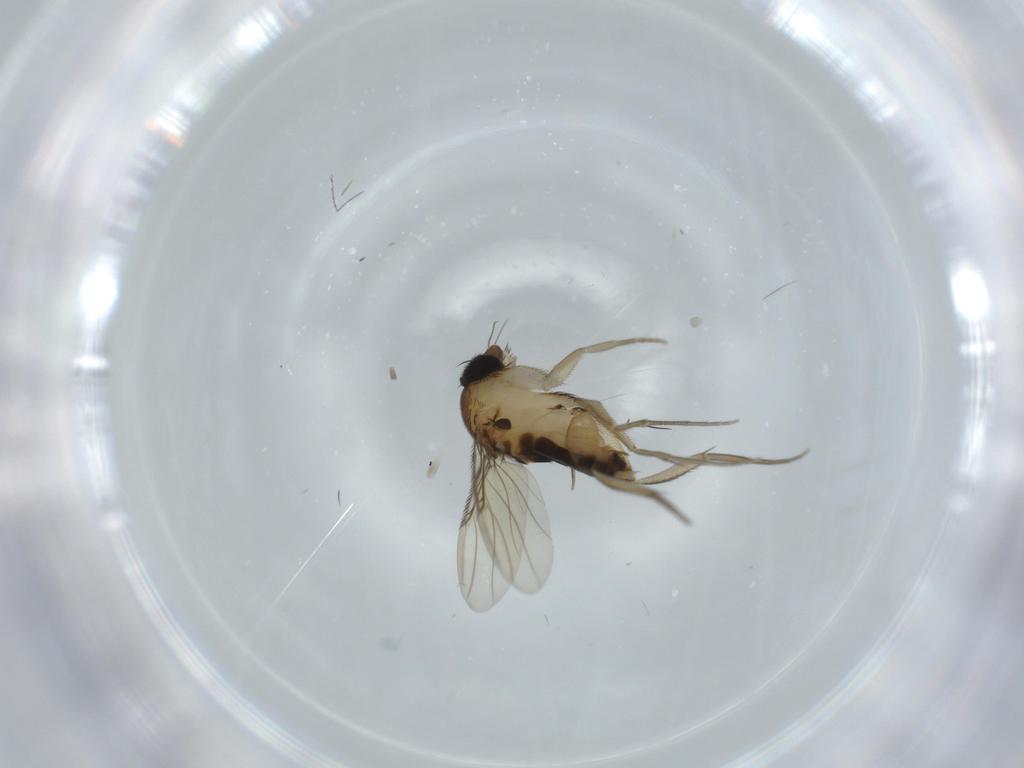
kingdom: Animalia
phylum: Arthropoda
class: Insecta
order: Diptera
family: Phoridae
